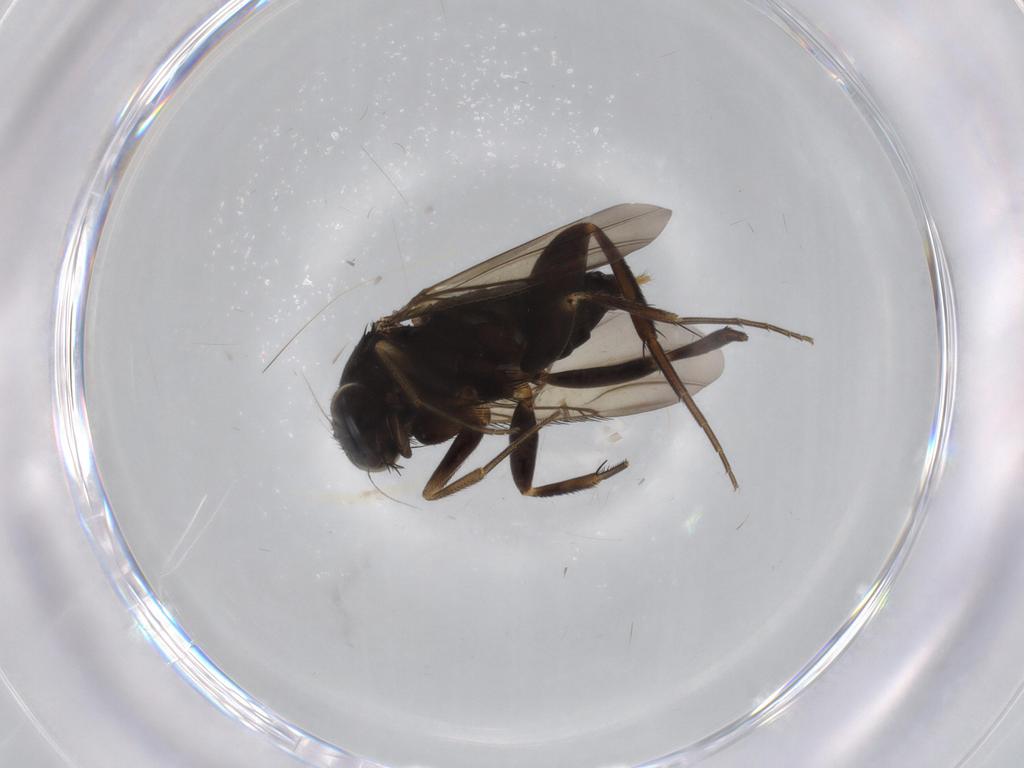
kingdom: Animalia
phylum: Arthropoda
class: Insecta
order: Diptera
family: Phoridae
